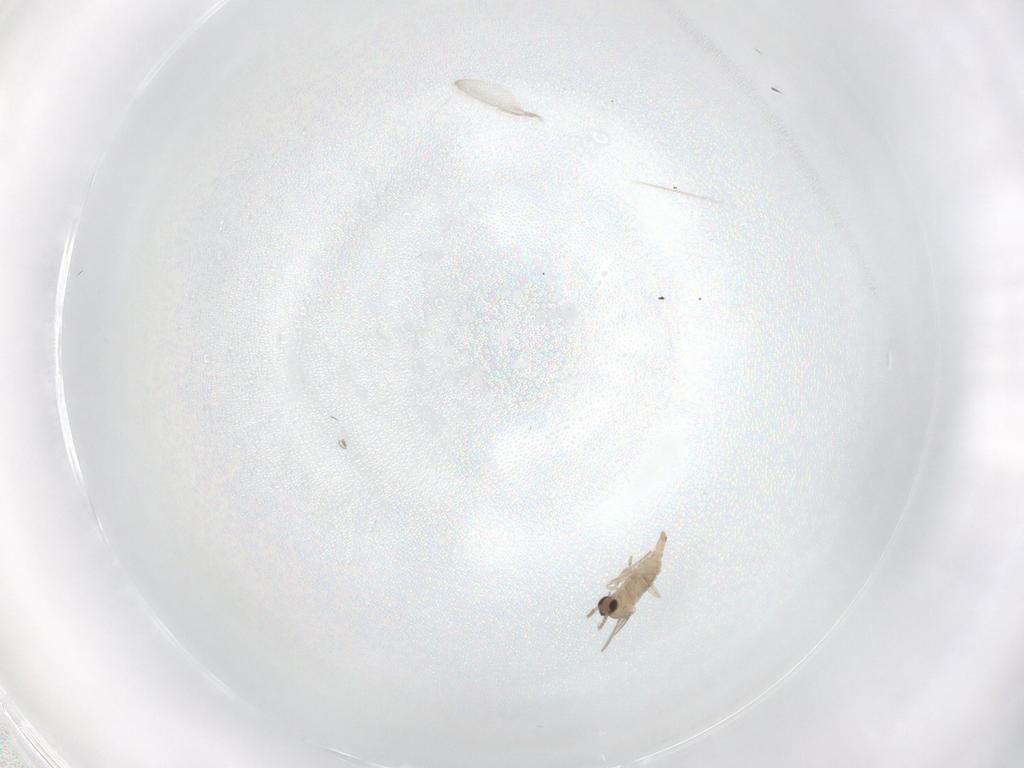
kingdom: Animalia
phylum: Arthropoda
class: Insecta
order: Diptera
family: Cecidomyiidae
